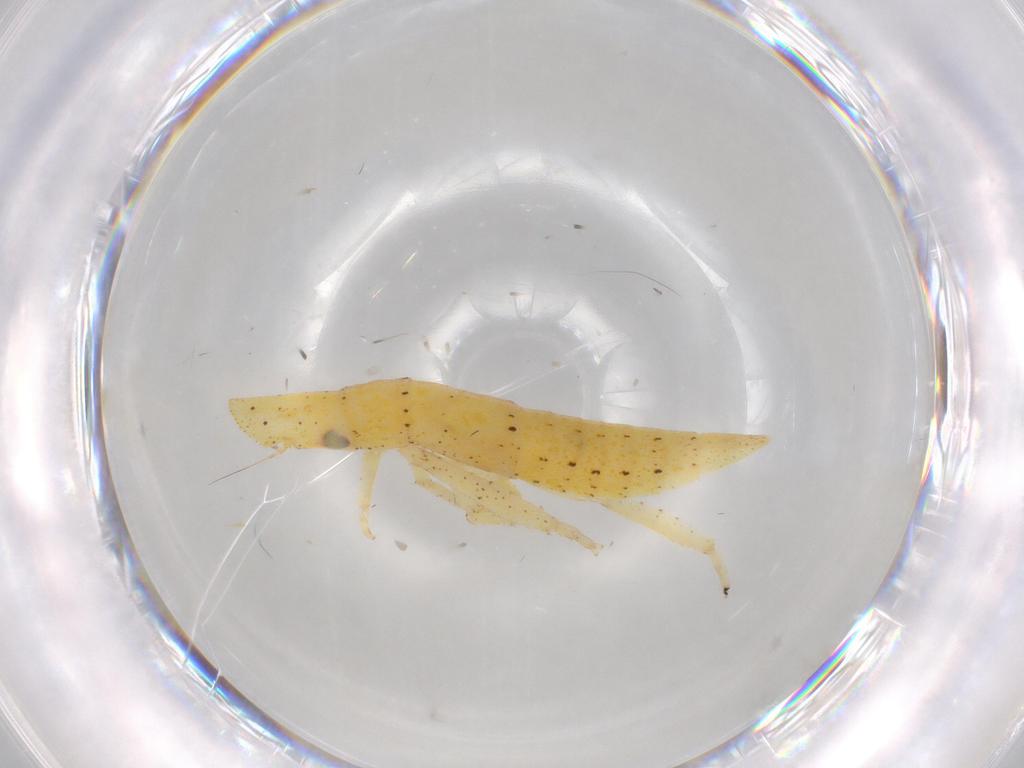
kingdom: Animalia
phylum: Arthropoda
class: Insecta
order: Hemiptera
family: Cicadellidae
